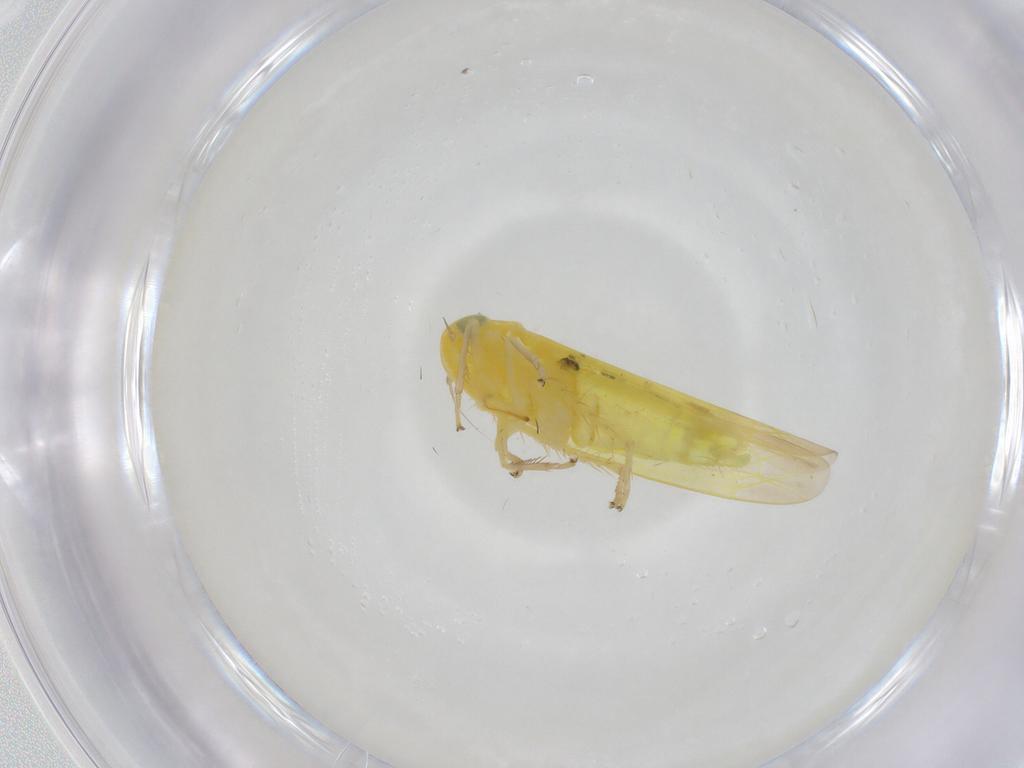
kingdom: Animalia
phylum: Arthropoda
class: Insecta
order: Hemiptera
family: Cicadellidae
